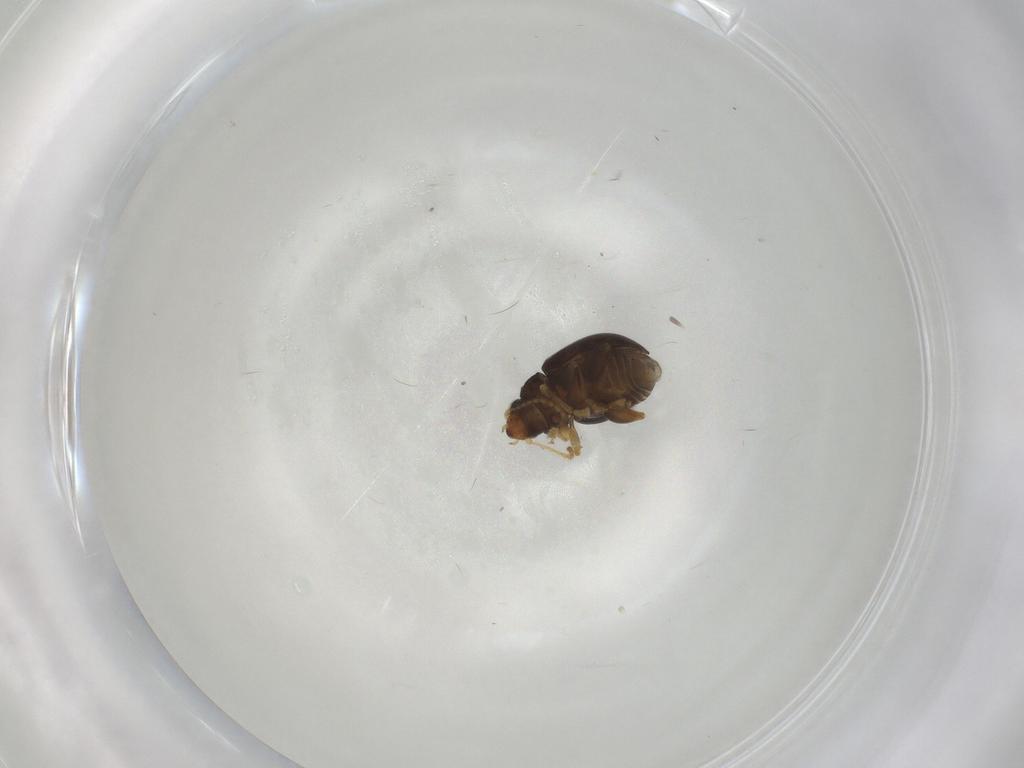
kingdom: Animalia
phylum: Arthropoda
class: Insecta
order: Coleoptera
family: Chrysomelidae
